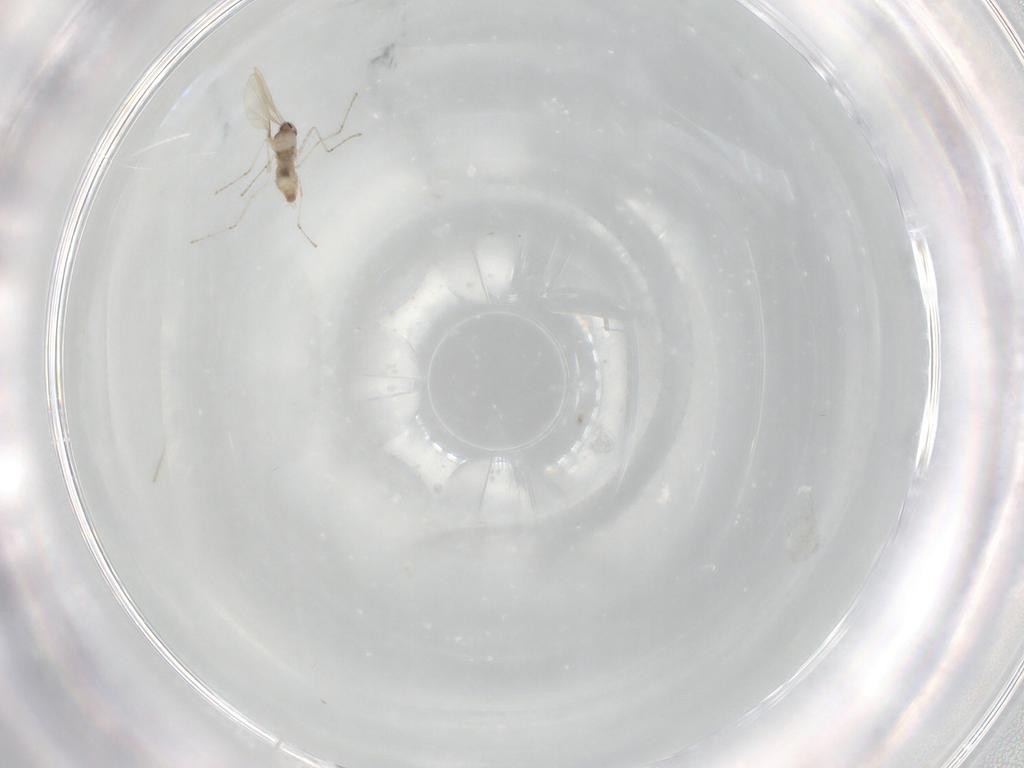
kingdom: Animalia
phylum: Arthropoda
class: Insecta
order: Diptera
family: Cecidomyiidae
